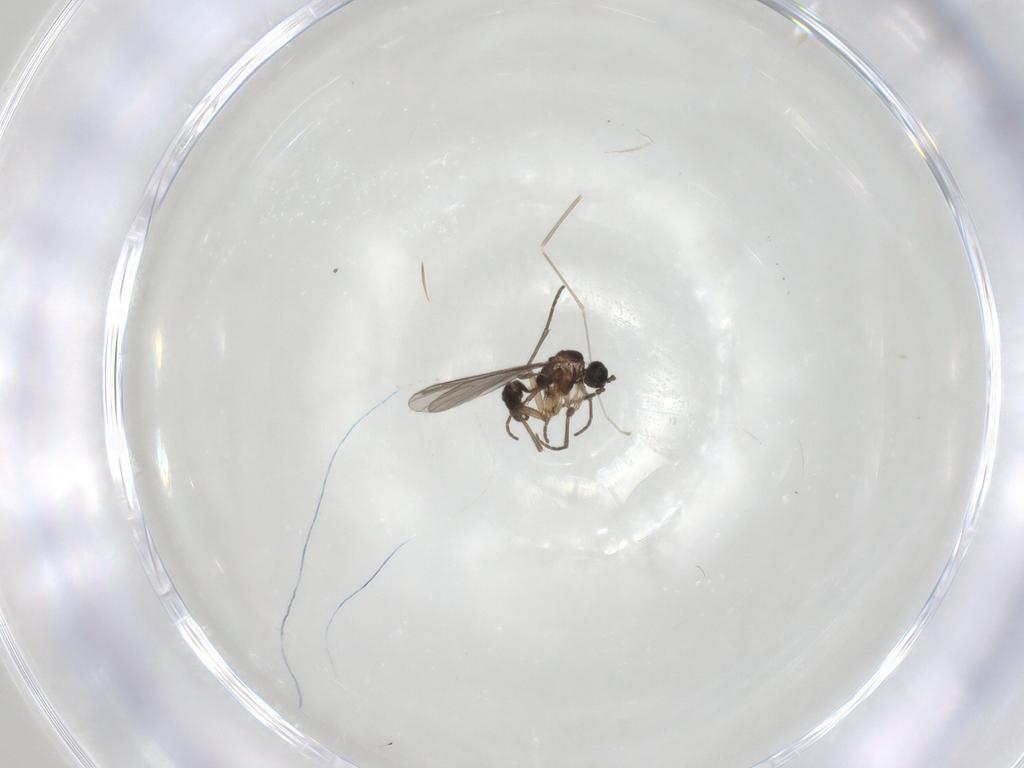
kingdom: Animalia
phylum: Arthropoda
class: Insecta
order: Diptera
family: Sciaridae
